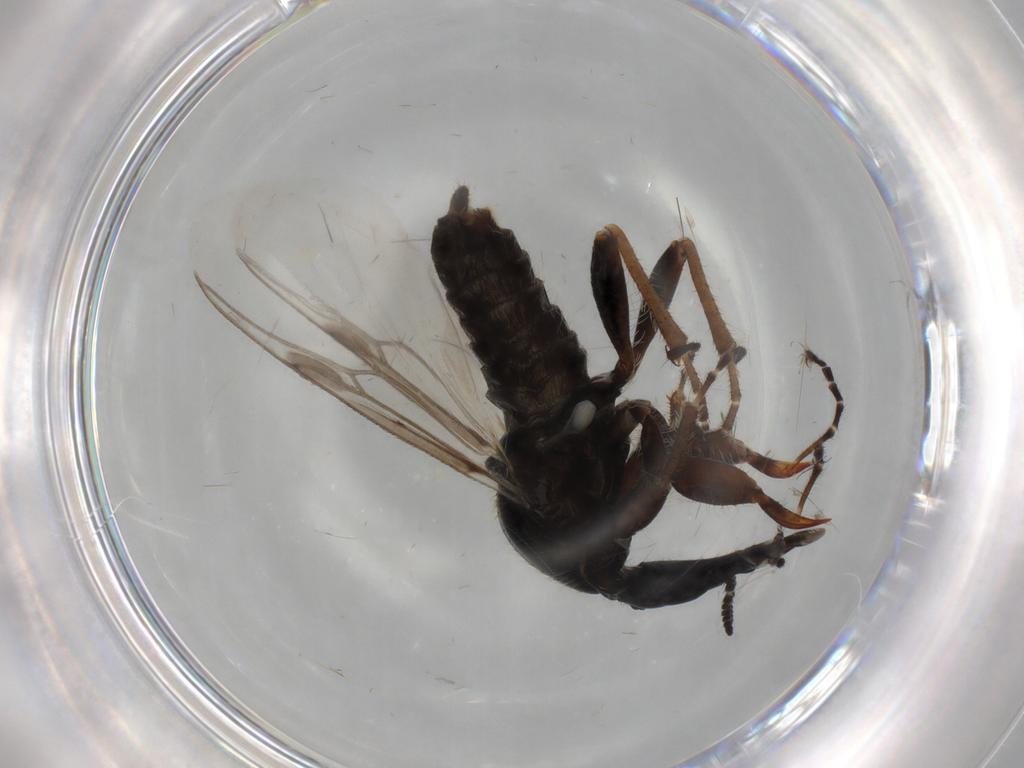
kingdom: Animalia
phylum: Arthropoda
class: Insecta
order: Diptera
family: Bibionidae
